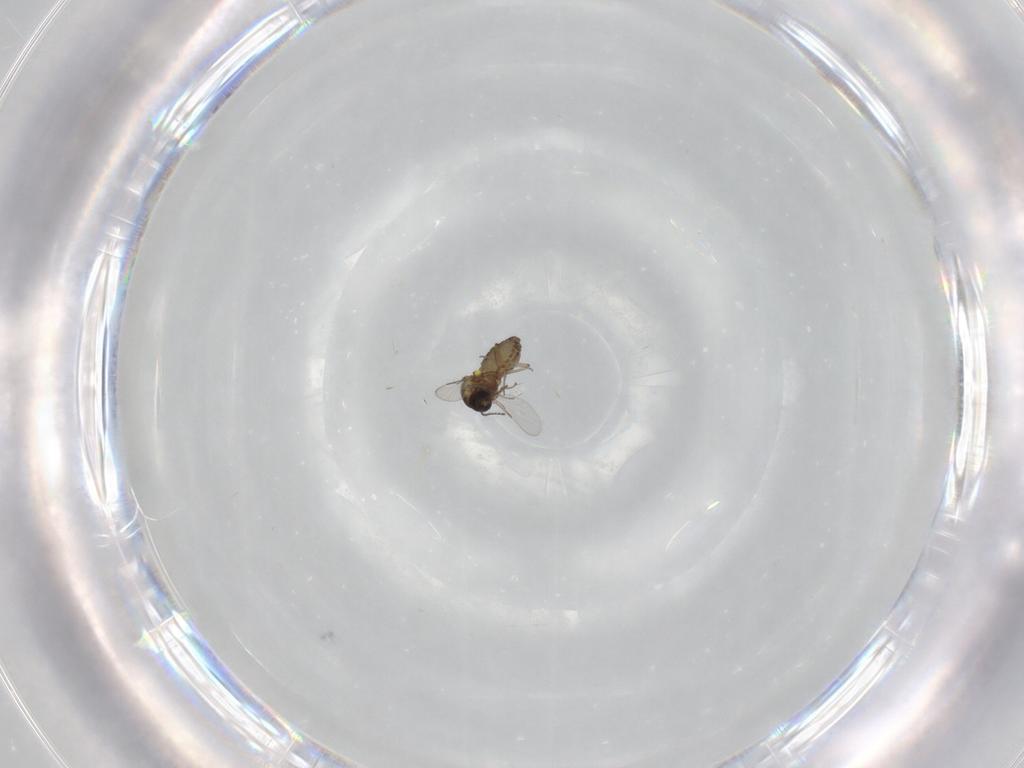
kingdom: Animalia
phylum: Arthropoda
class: Insecta
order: Diptera
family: Ceratopogonidae
